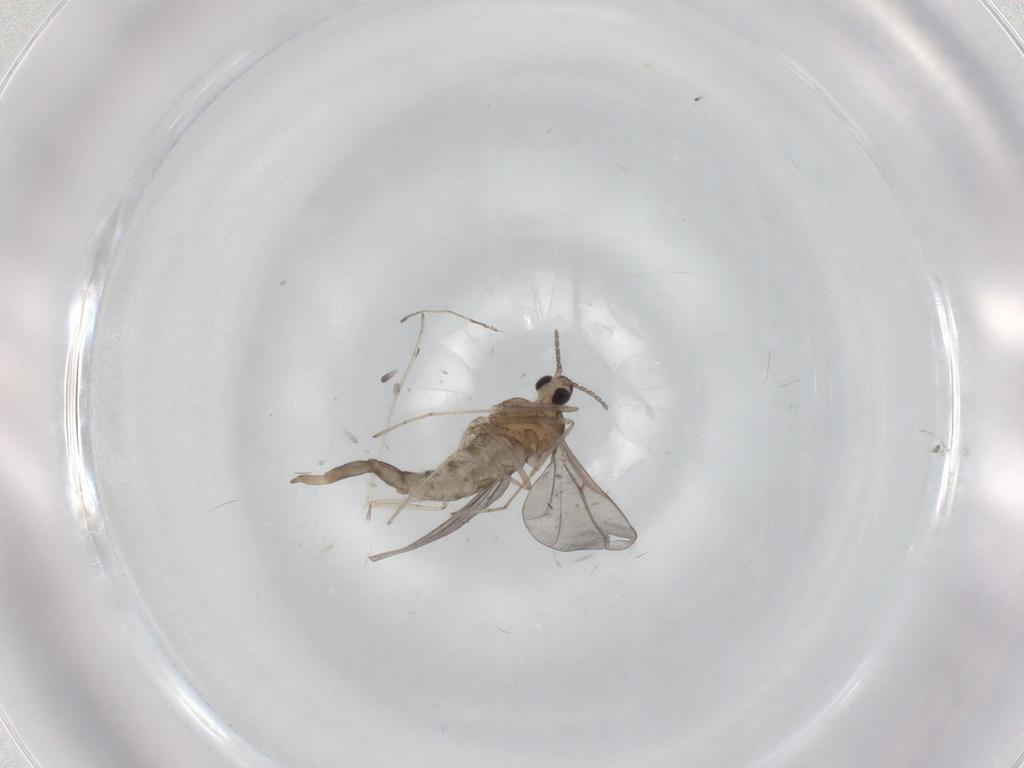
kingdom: Animalia
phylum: Arthropoda
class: Insecta
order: Diptera
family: Cecidomyiidae
